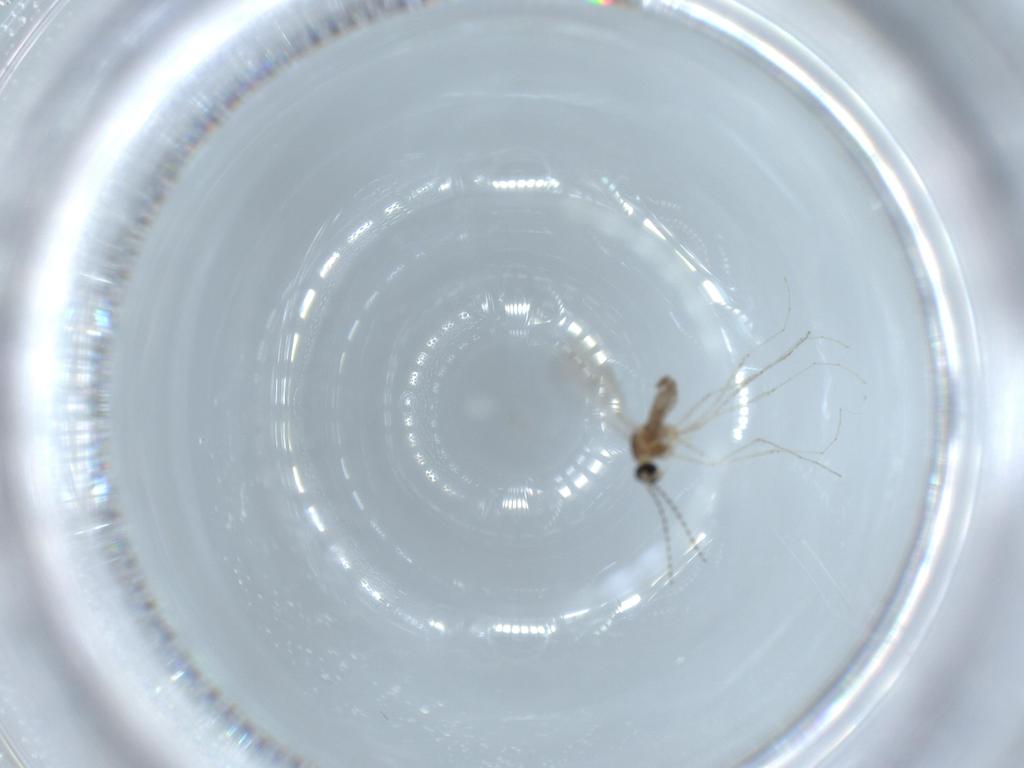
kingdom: Animalia
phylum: Arthropoda
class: Insecta
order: Diptera
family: Cecidomyiidae
